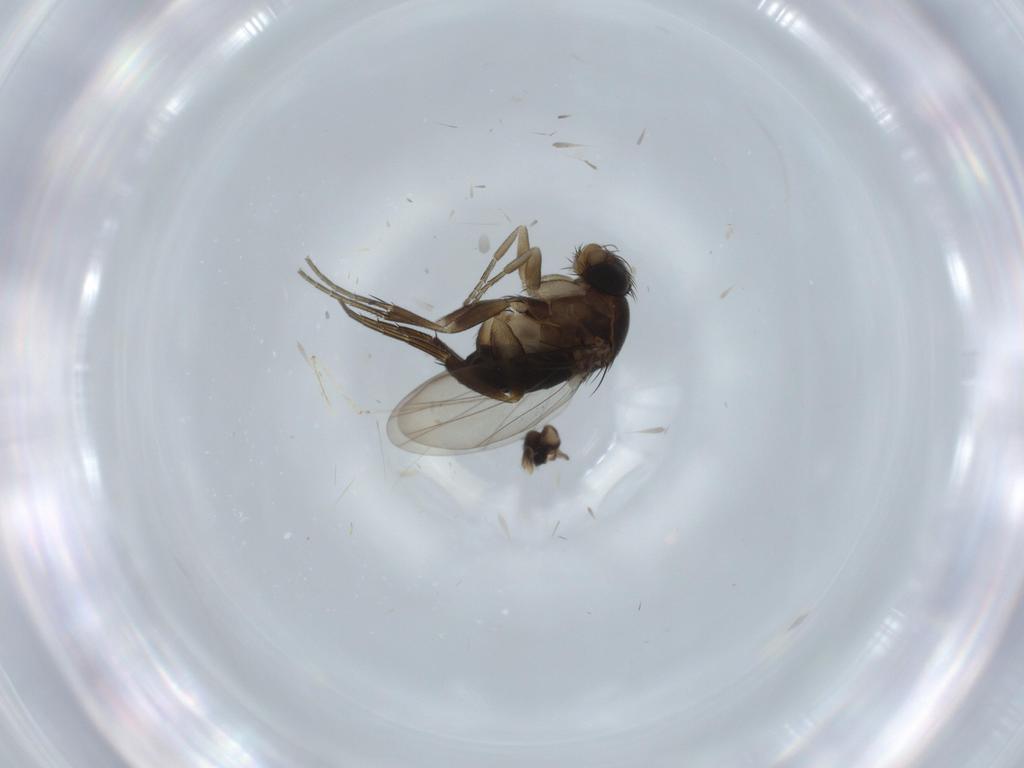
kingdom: Animalia
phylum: Arthropoda
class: Insecta
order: Diptera
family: Phoridae
